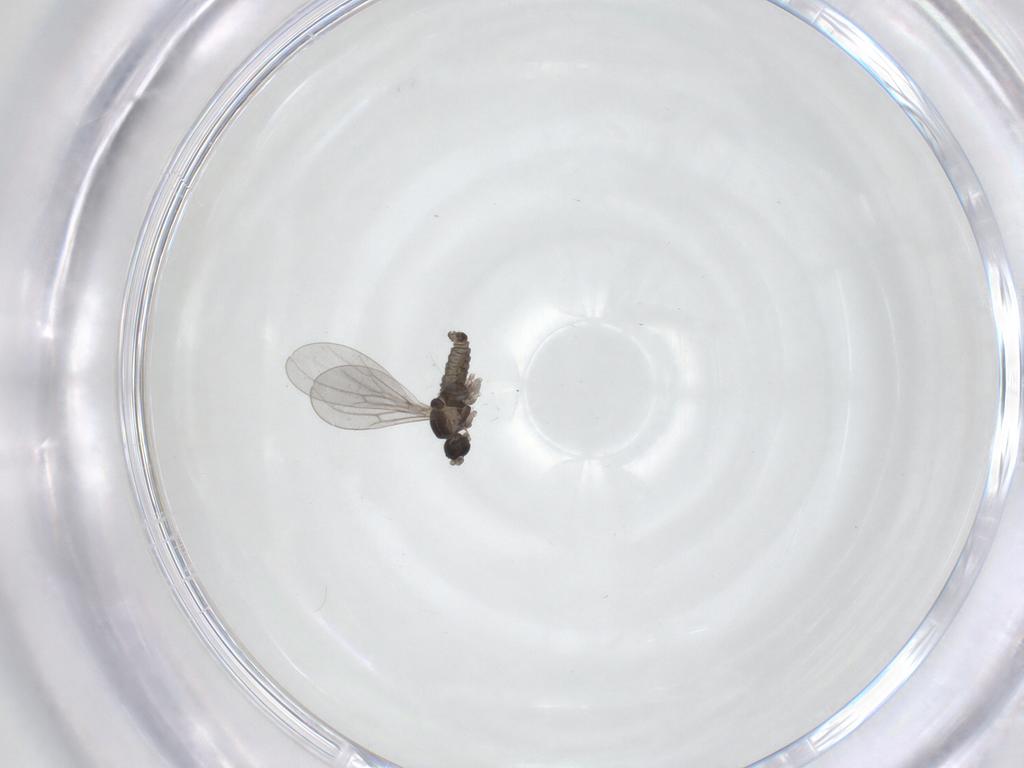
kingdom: Animalia
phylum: Arthropoda
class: Insecta
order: Diptera
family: Cecidomyiidae
